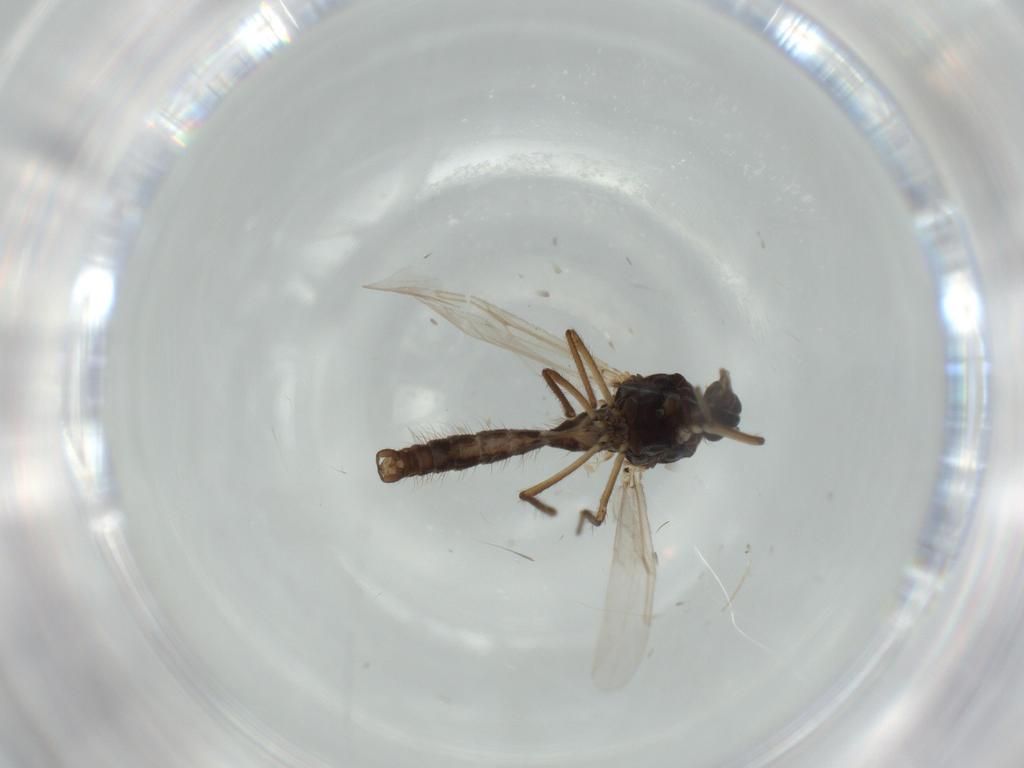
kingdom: Animalia
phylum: Arthropoda
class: Insecta
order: Diptera
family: Ceratopogonidae
